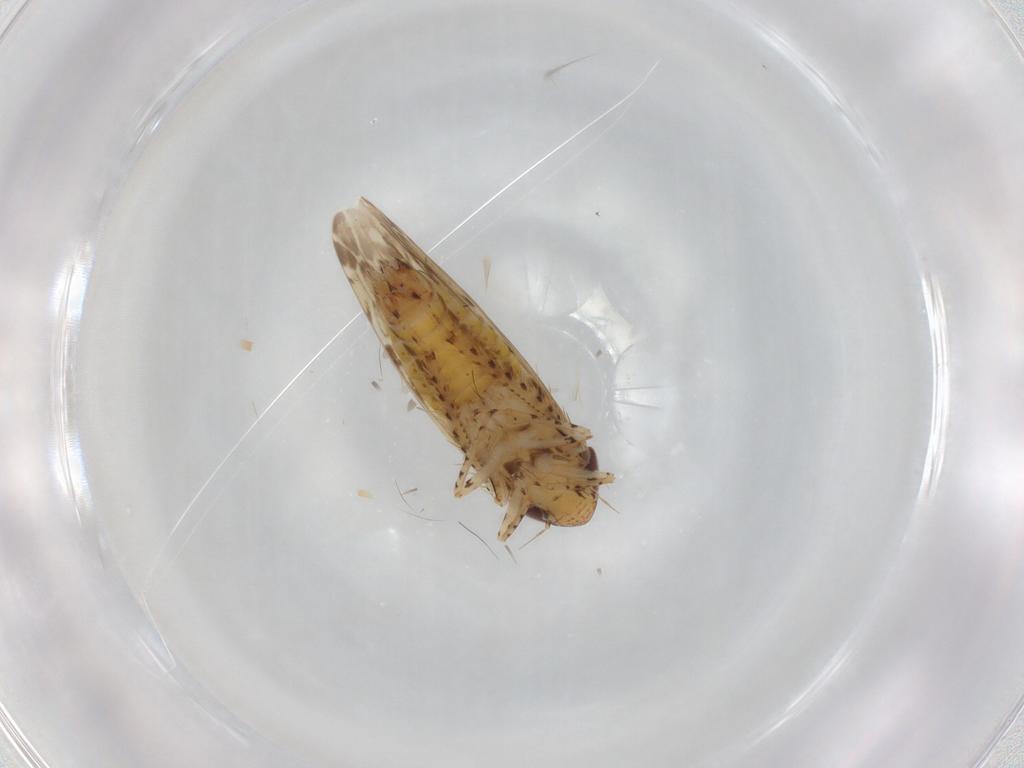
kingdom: Animalia
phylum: Arthropoda
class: Insecta
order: Hemiptera
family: Cicadellidae
